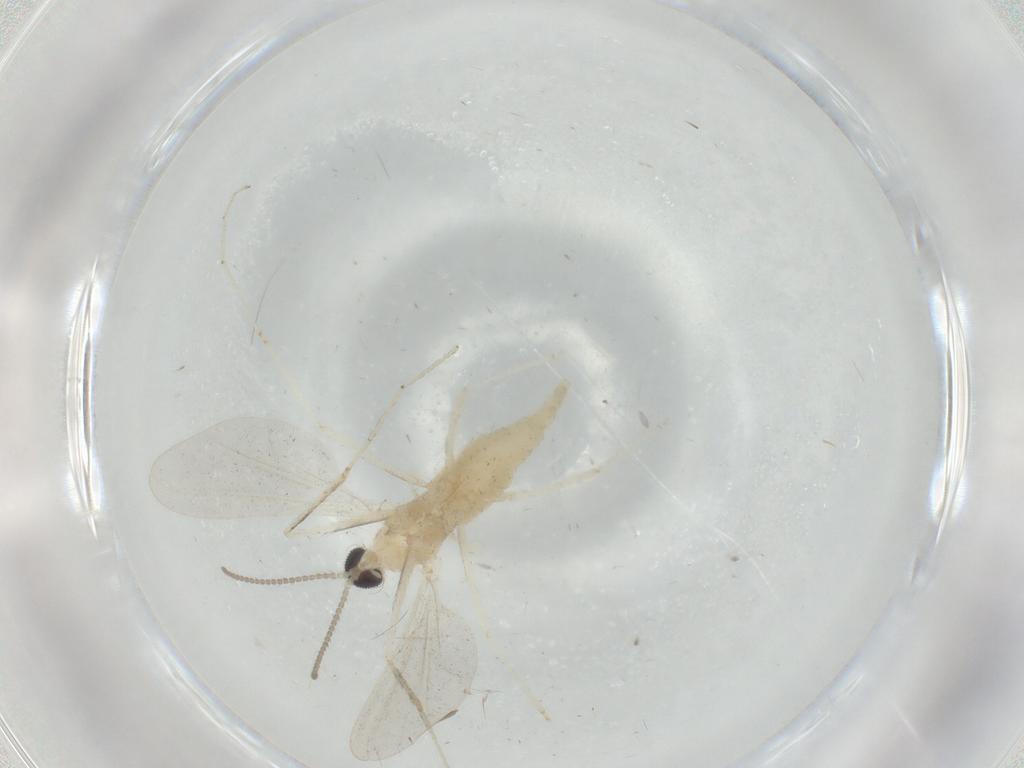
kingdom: Animalia
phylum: Arthropoda
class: Insecta
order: Diptera
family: Cecidomyiidae
